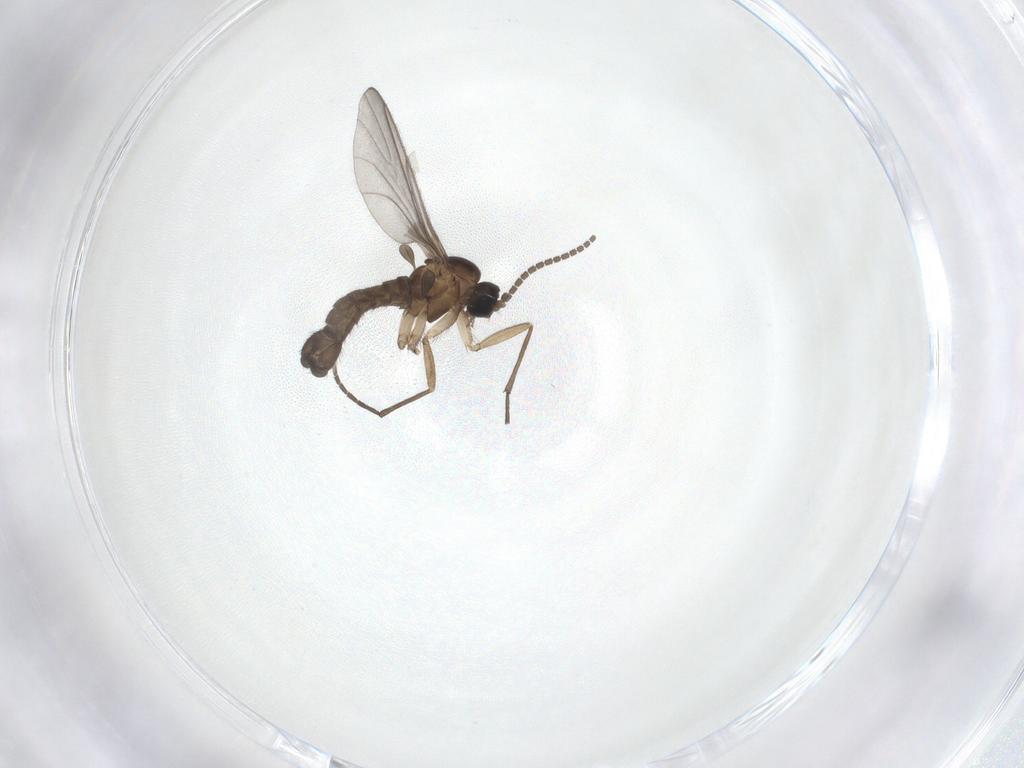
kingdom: Animalia
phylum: Arthropoda
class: Insecta
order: Diptera
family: Sciaridae
